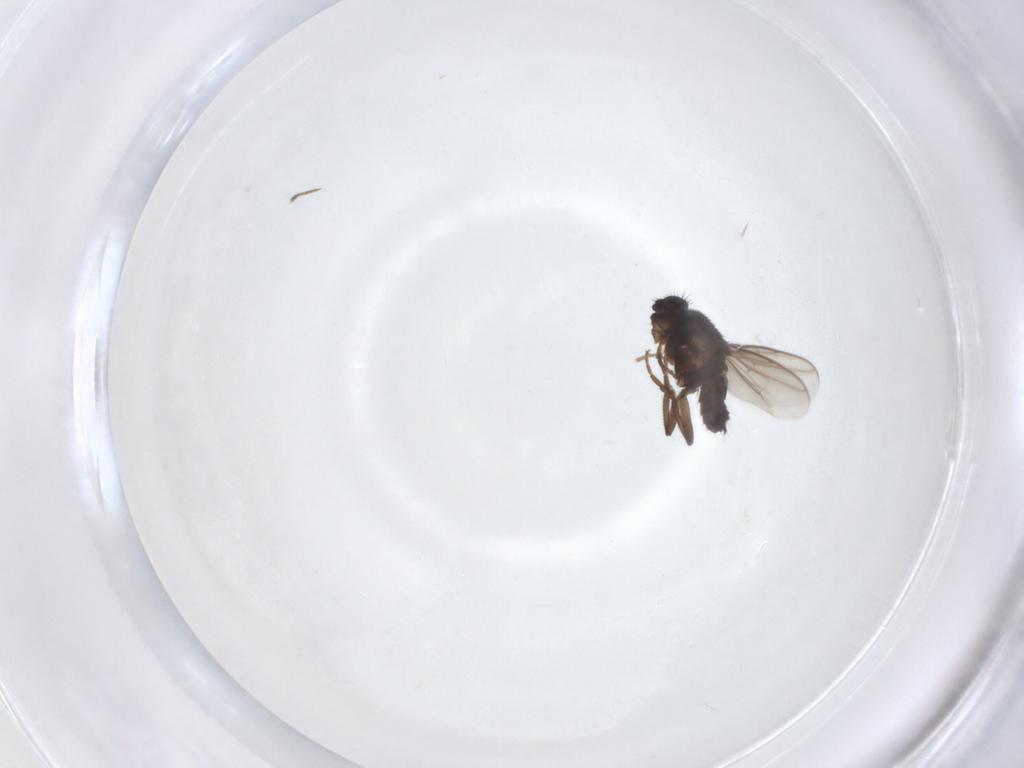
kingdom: Animalia
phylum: Arthropoda
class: Insecta
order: Diptera
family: Sphaeroceridae
